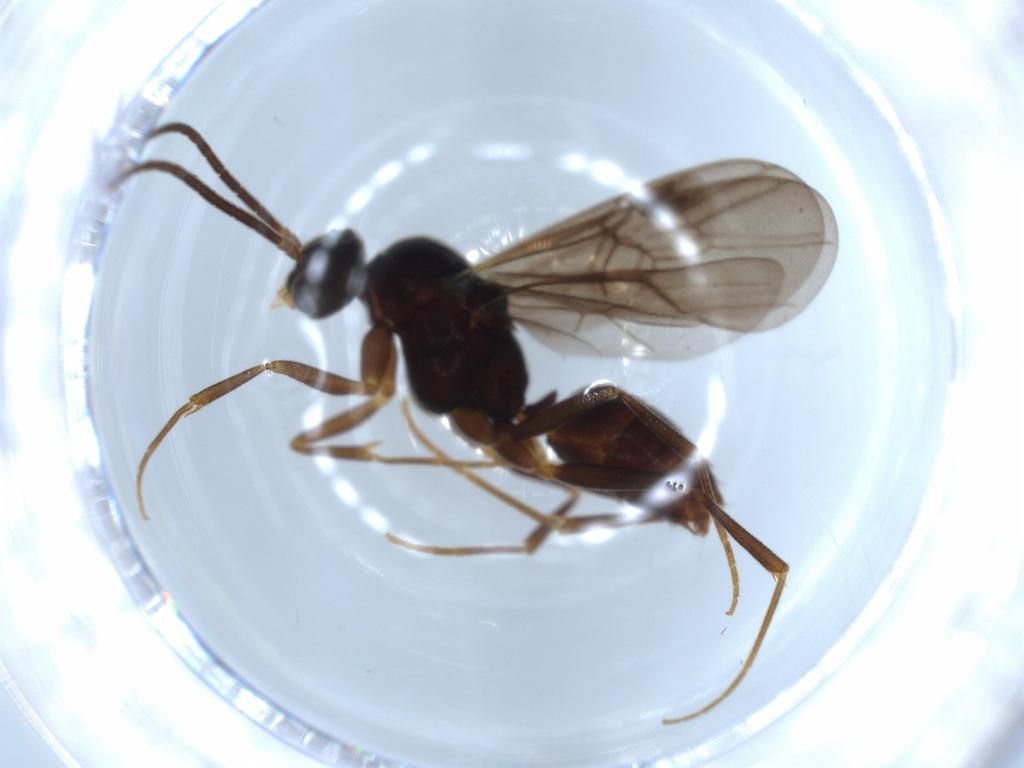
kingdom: Animalia
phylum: Arthropoda
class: Insecta
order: Hymenoptera
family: Formicidae
